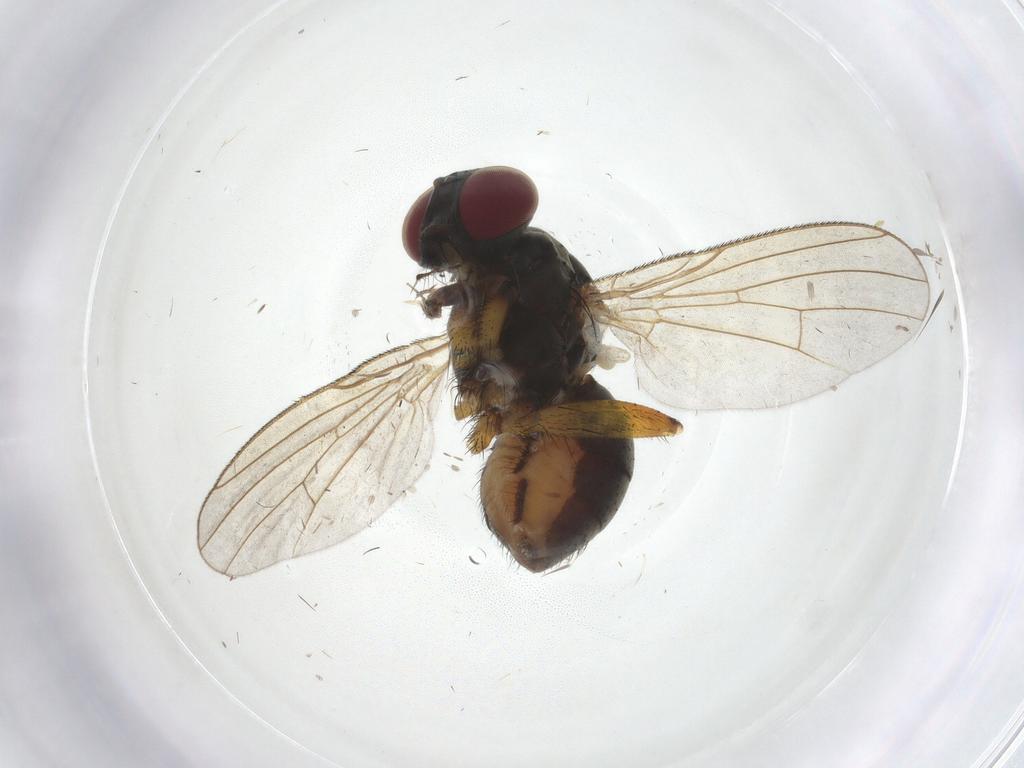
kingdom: Animalia
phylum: Arthropoda
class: Insecta
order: Diptera
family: Muscidae
